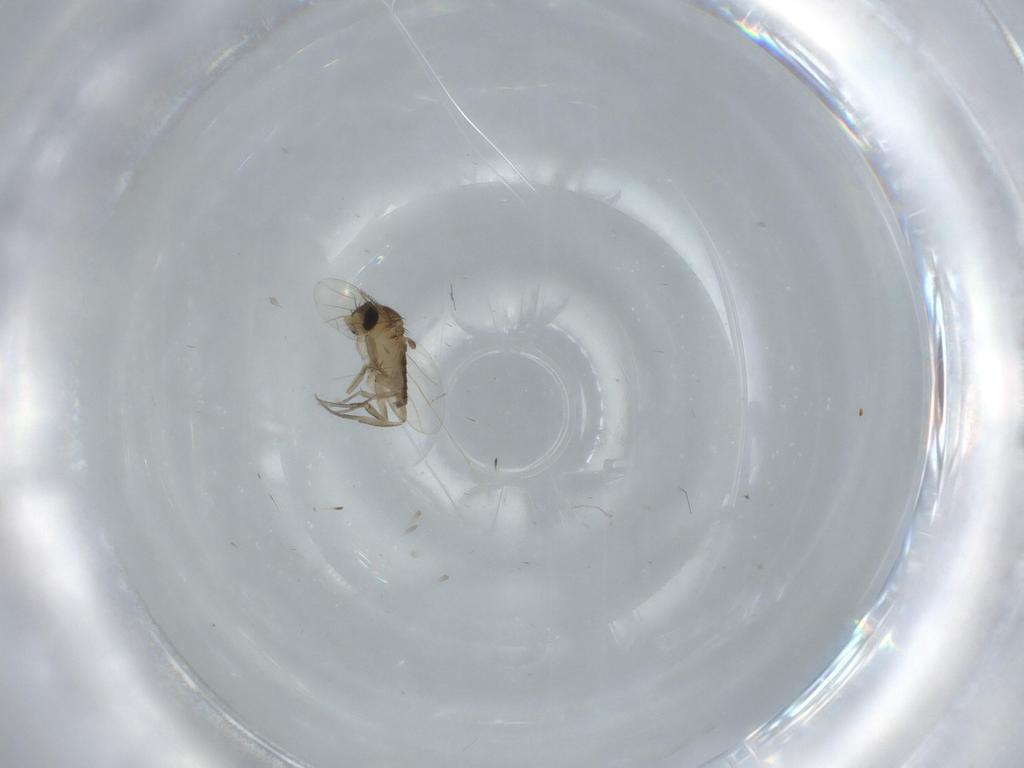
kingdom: Animalia
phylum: Arthropoda
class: Insecta
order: Diptera
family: Phoridae
